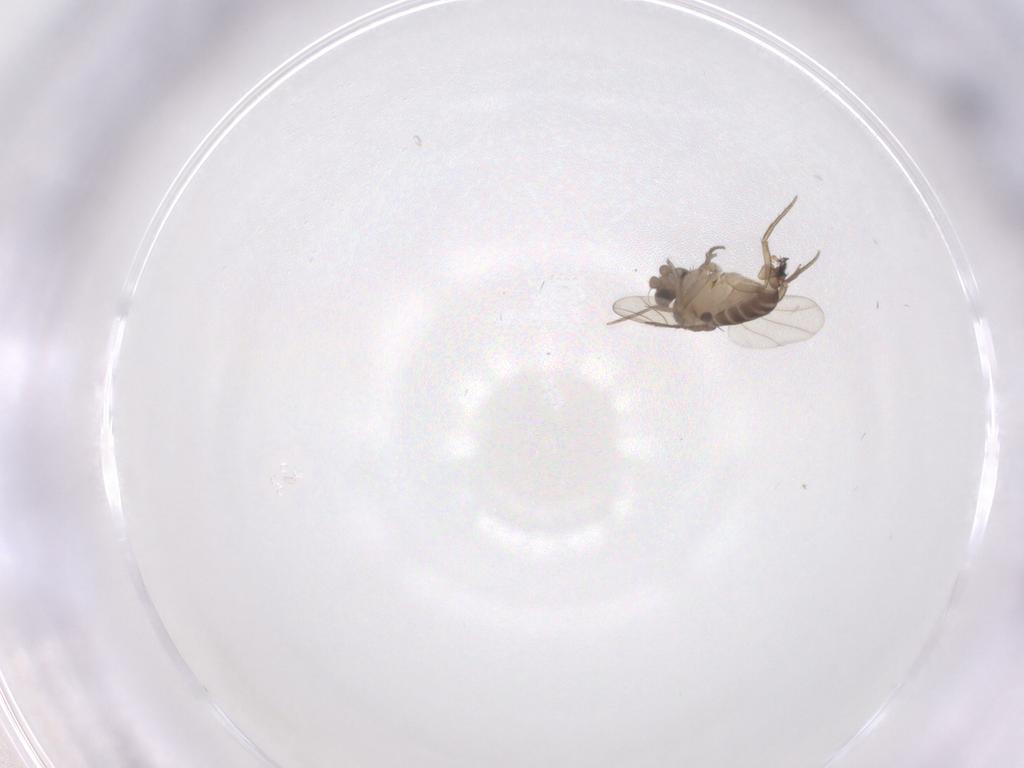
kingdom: Animalia
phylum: Arthropoda
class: Insecta
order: Diptera
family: Phoridae
